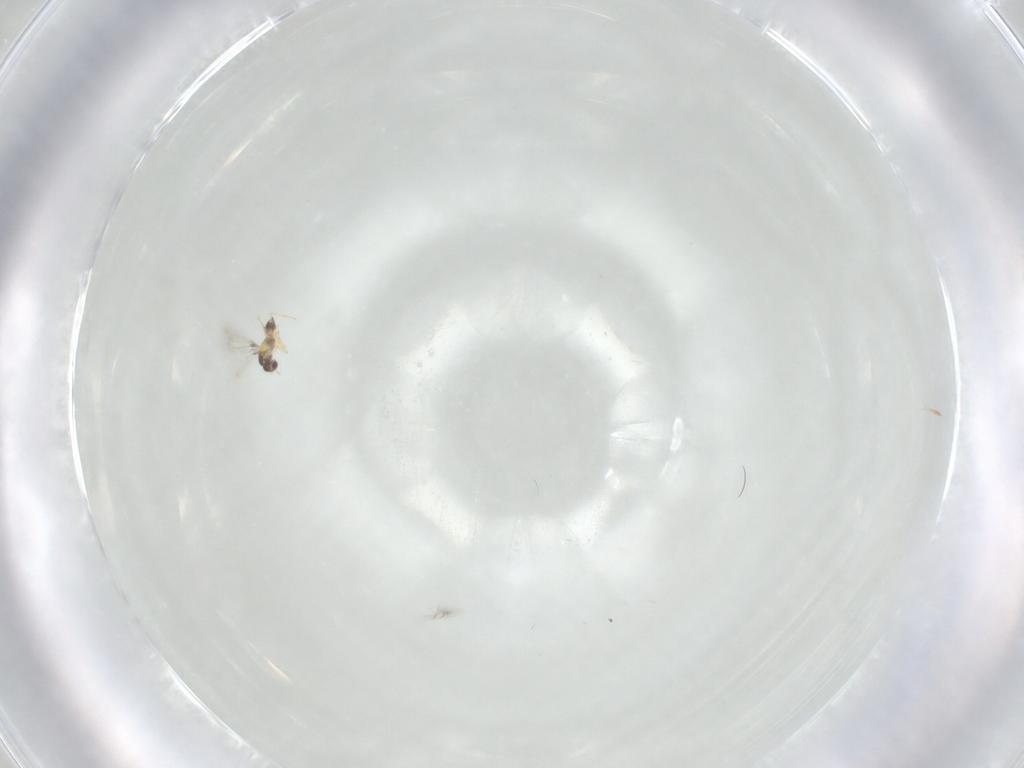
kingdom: Animalia
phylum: Arthropoda
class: Insecta
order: Hymenoptera
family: Mymaridae
